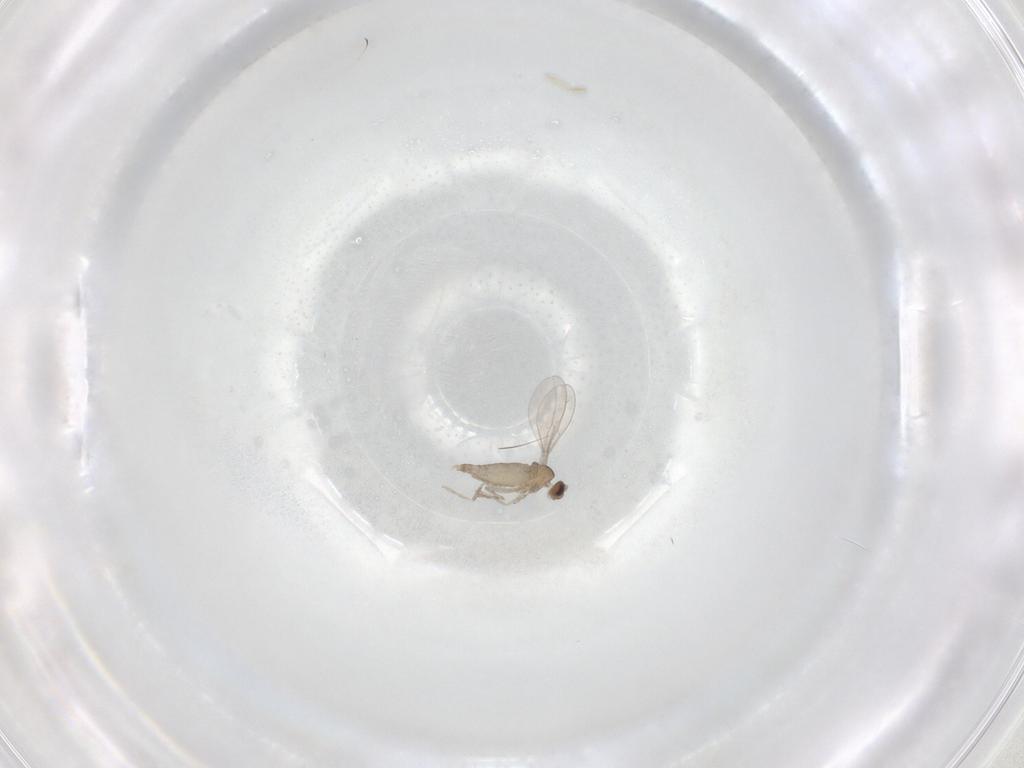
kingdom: Animalia
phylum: Arthropoda
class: Insecta
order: Diptera
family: Cecidomyiidae
